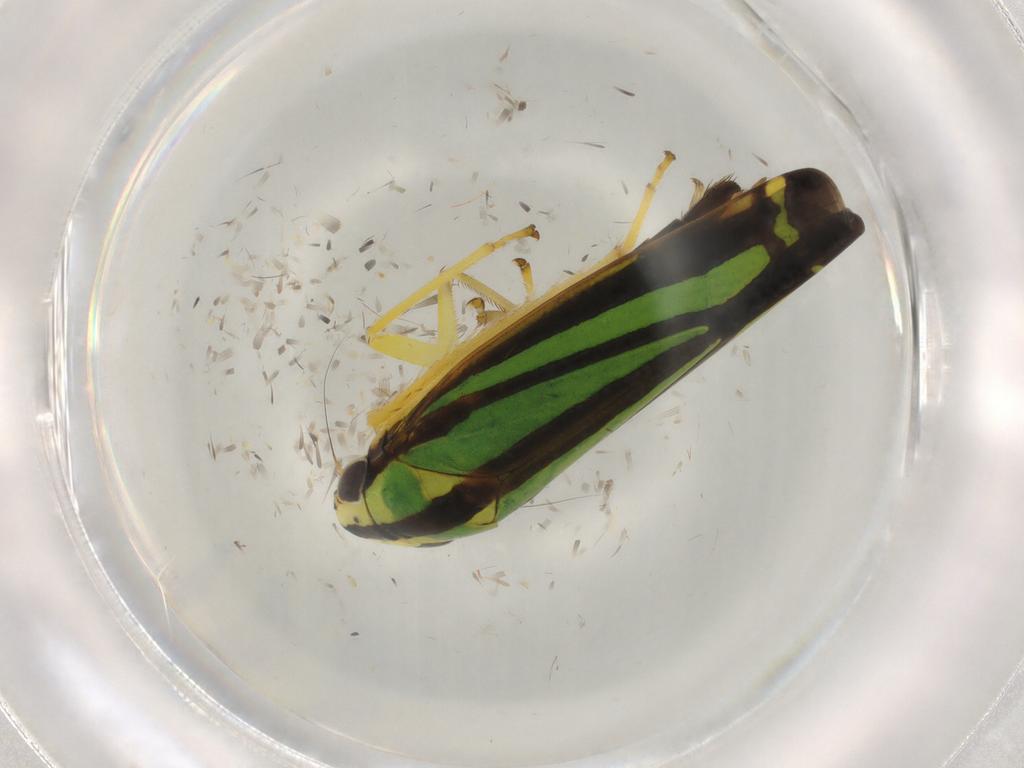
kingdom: Animalia
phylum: Arthropoda
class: Insecta
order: Hemiptera
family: Cicadellidae
